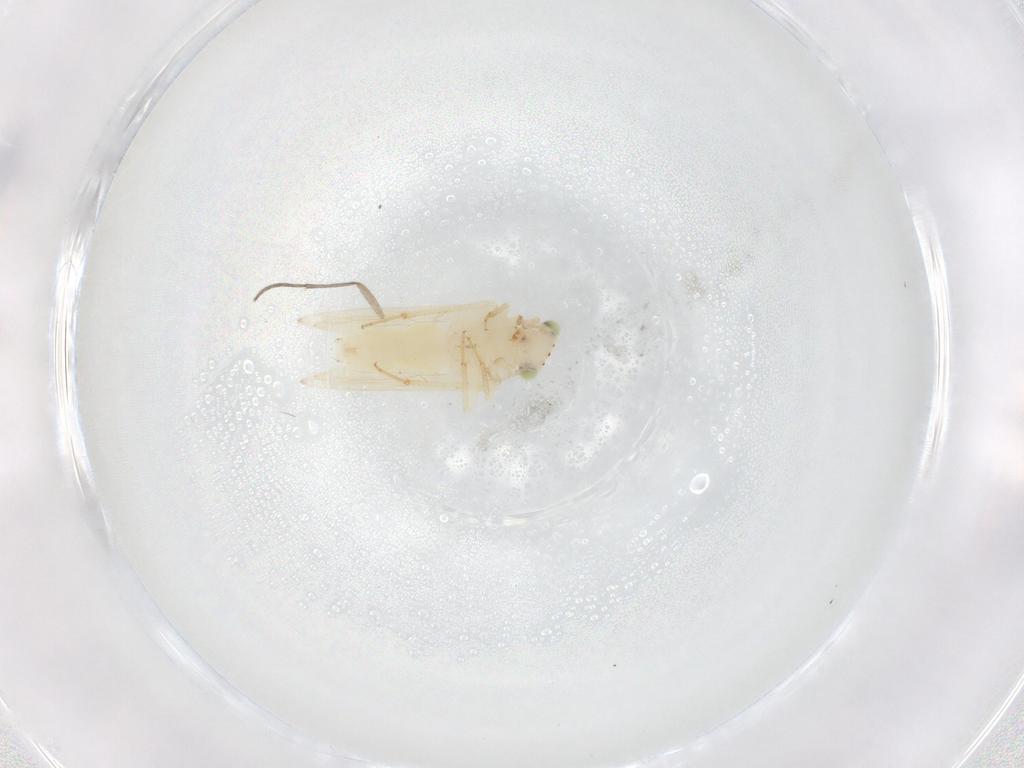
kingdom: Animalia
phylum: Arthropoda
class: Insecta
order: Psocodea
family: Lepidopsocidae
